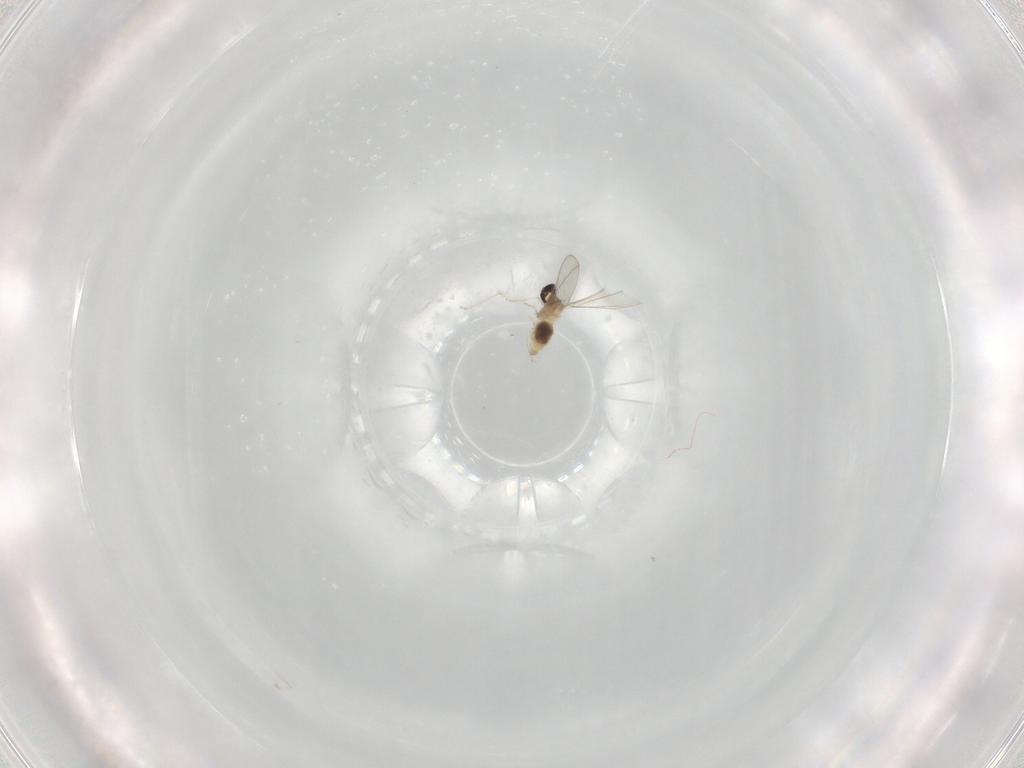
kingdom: Animalia
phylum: Arthropoda
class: Insecta
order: Diptera
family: Cecidomyiidae
